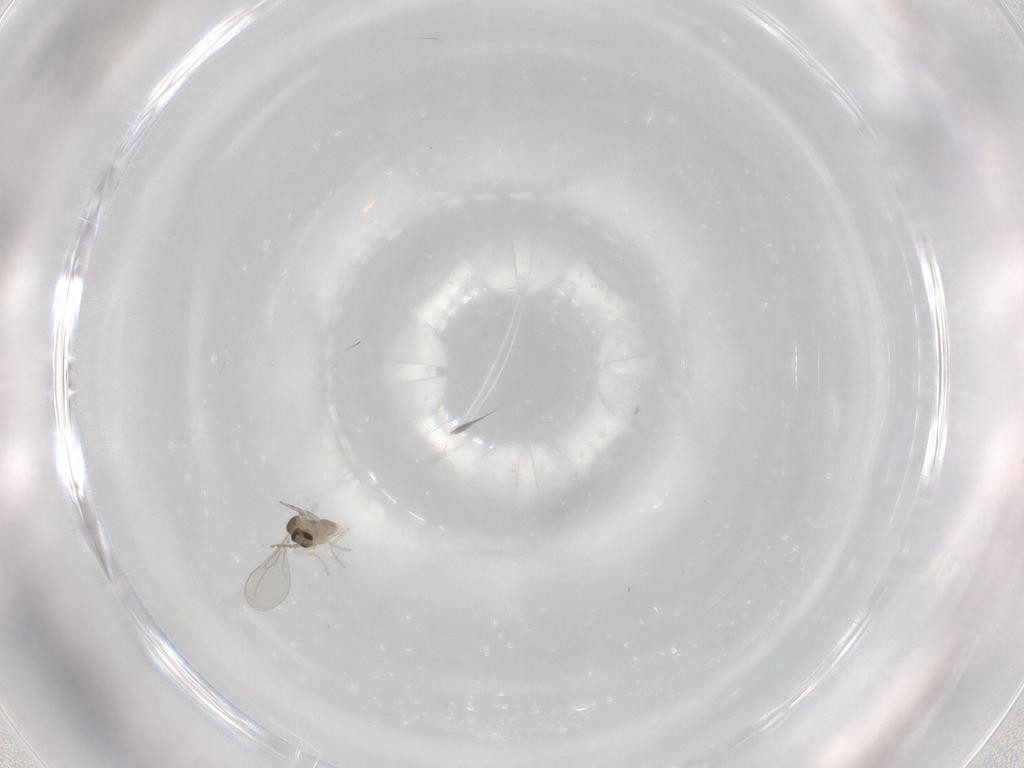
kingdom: Animalia
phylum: Arthropoda
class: Insecta
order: Diptera
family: Cecidomyiidae
